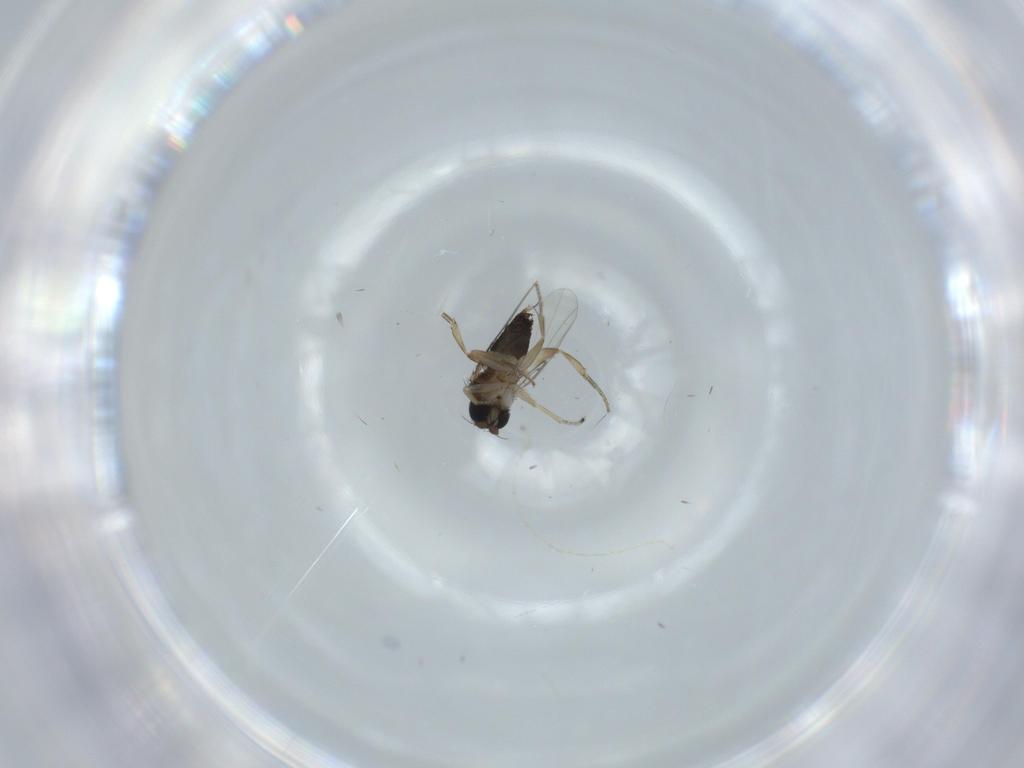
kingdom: Animalia
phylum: Arthropoda
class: Insecta
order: Diptera
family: Phoridae
